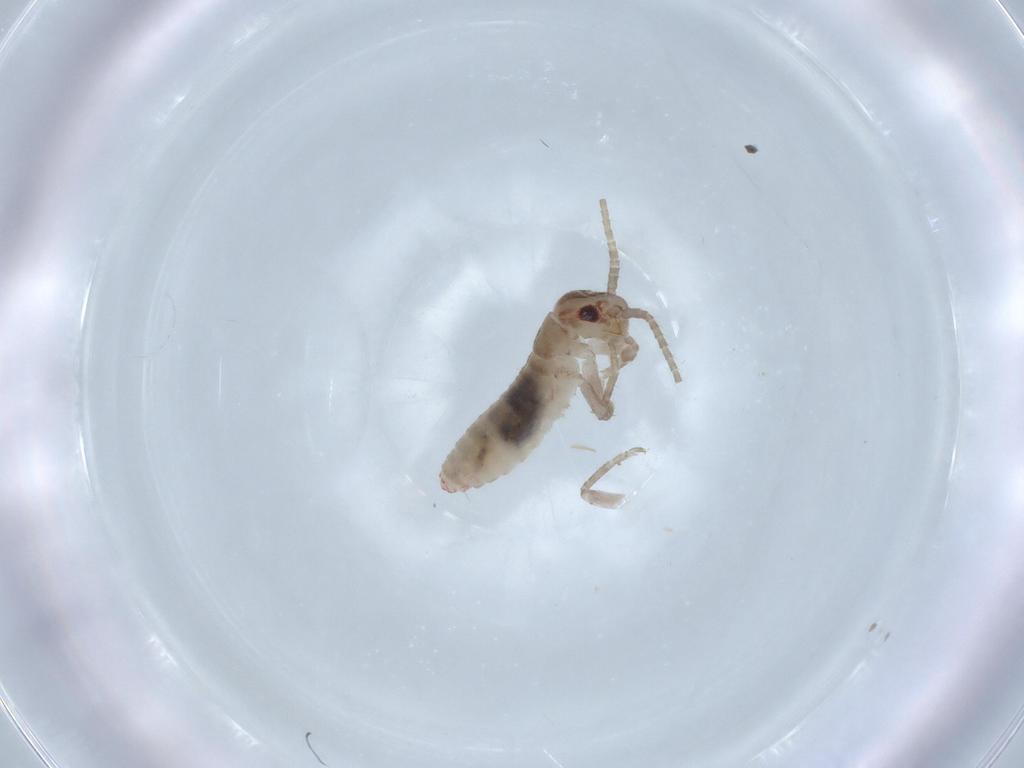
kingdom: Animalia
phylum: Arthropoda
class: Insecta
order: Orthoptera
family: Mogoplistidae
